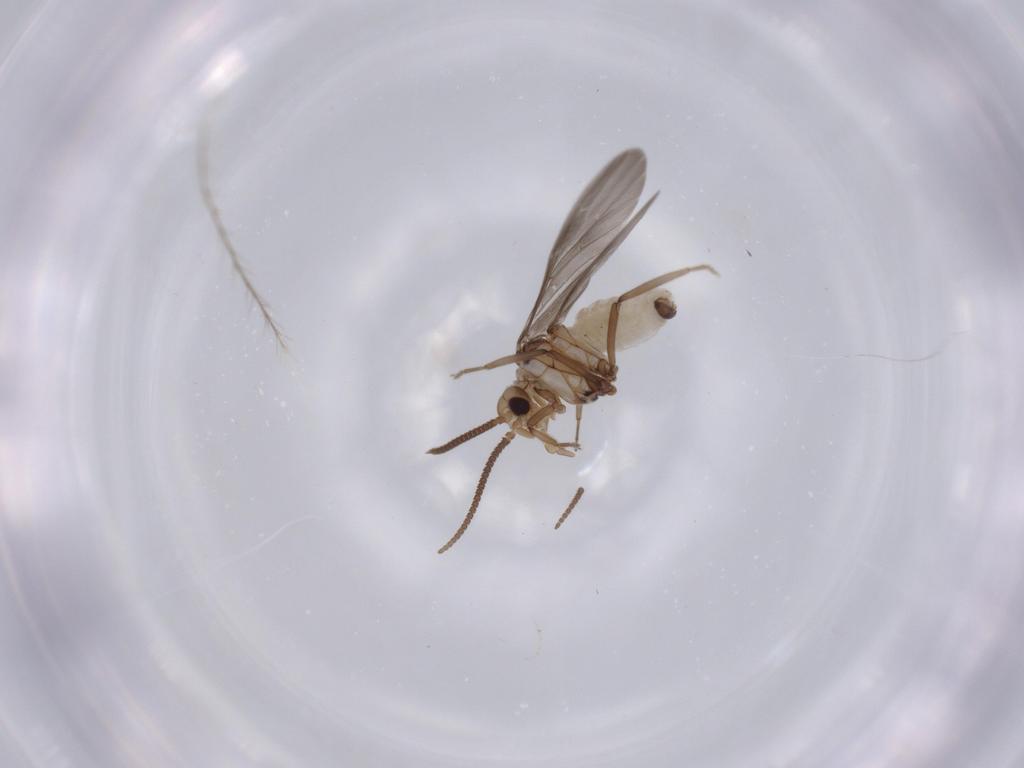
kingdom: Animalia
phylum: Arthropoda
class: Insecta
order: Neuroptera
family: Coniopterygidae
